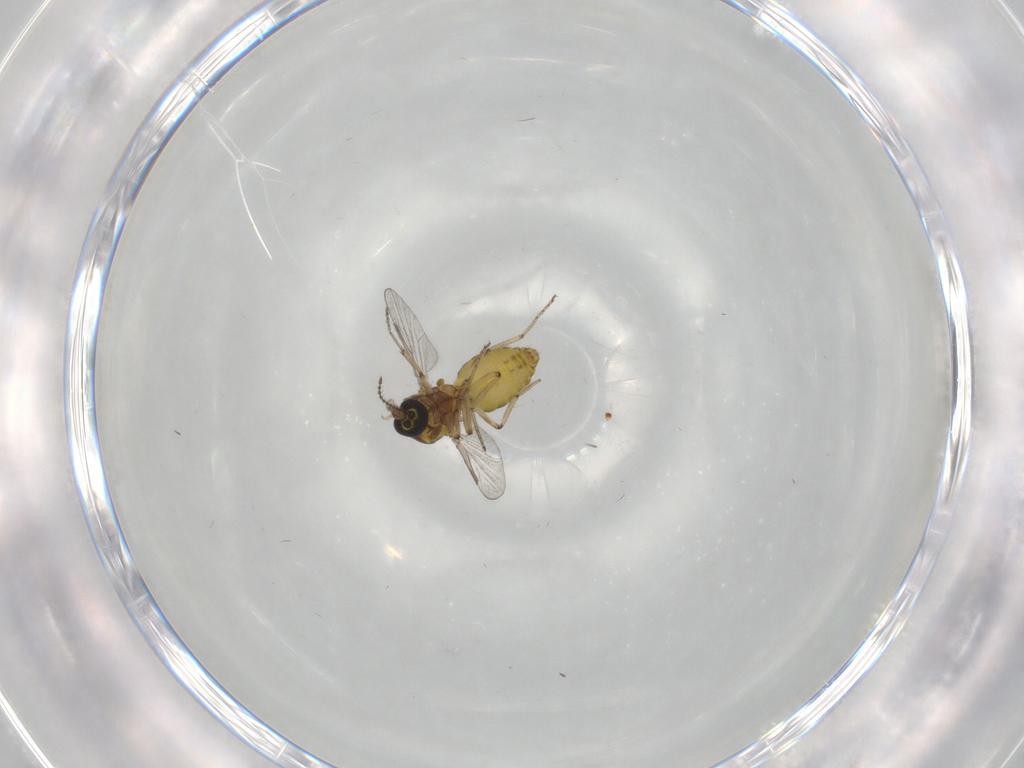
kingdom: Animalia
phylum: Arthropoda
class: Insecta
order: Diptera
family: Ceratopogonidae
